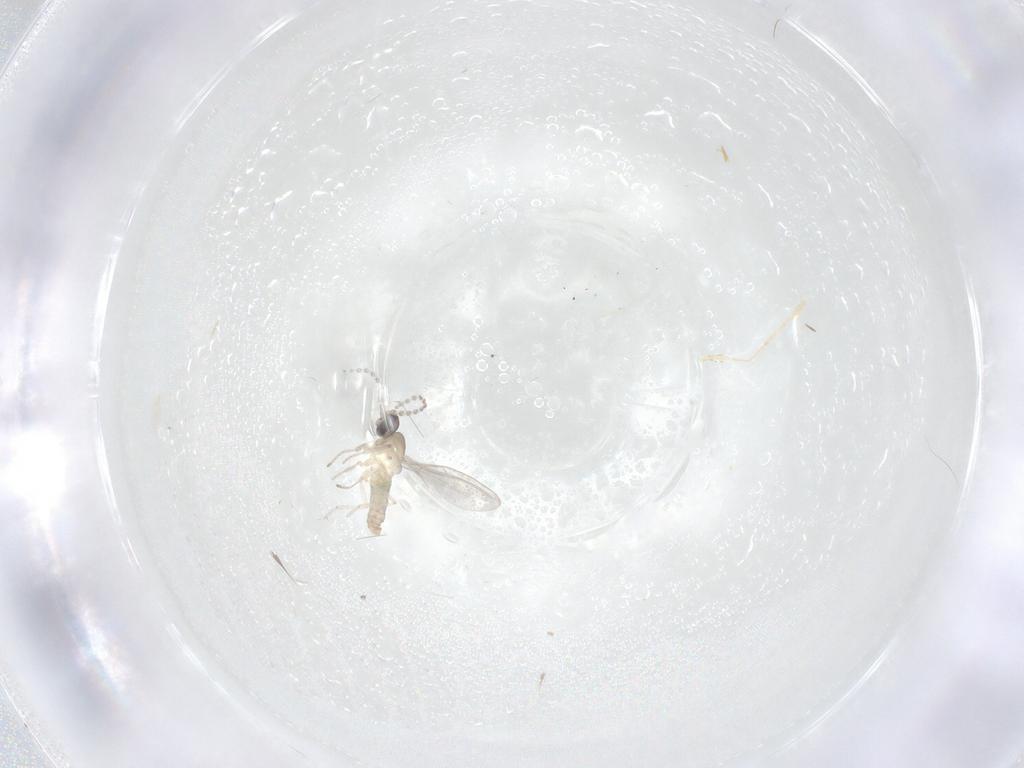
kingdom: Animalia
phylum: Arthropoda
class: Insecta
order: Diptera
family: Cecidomyiidae
